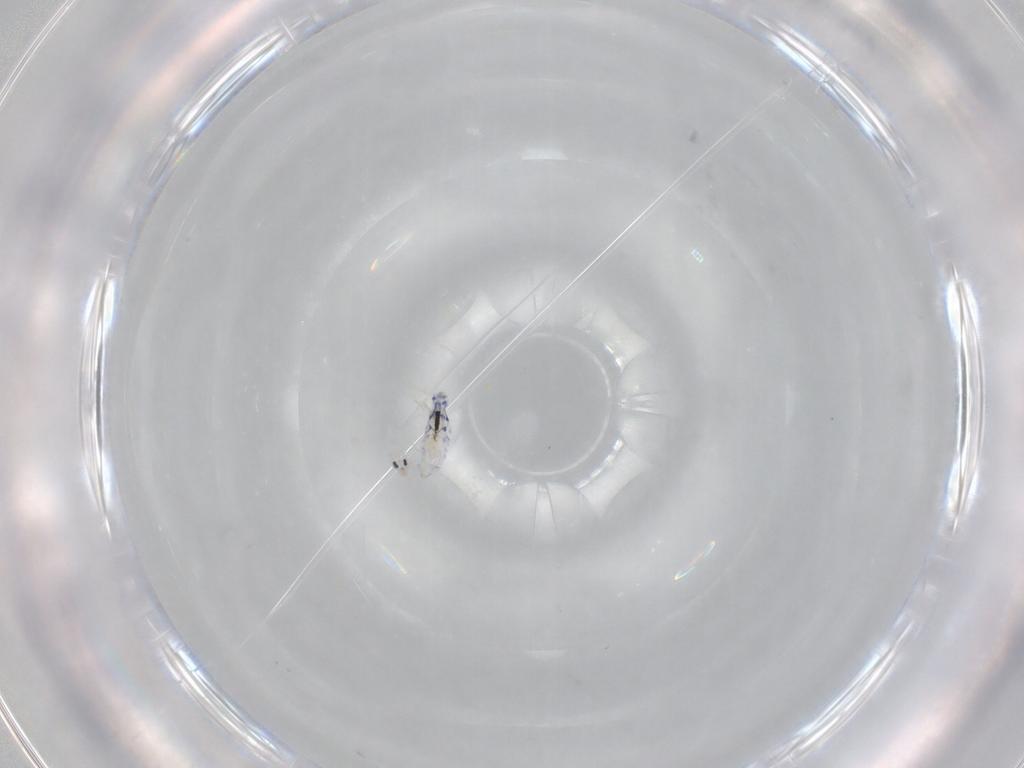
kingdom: Animalia
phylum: Arthropoda
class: Collembola
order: Entomobryomorpha
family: Entomobryidae
